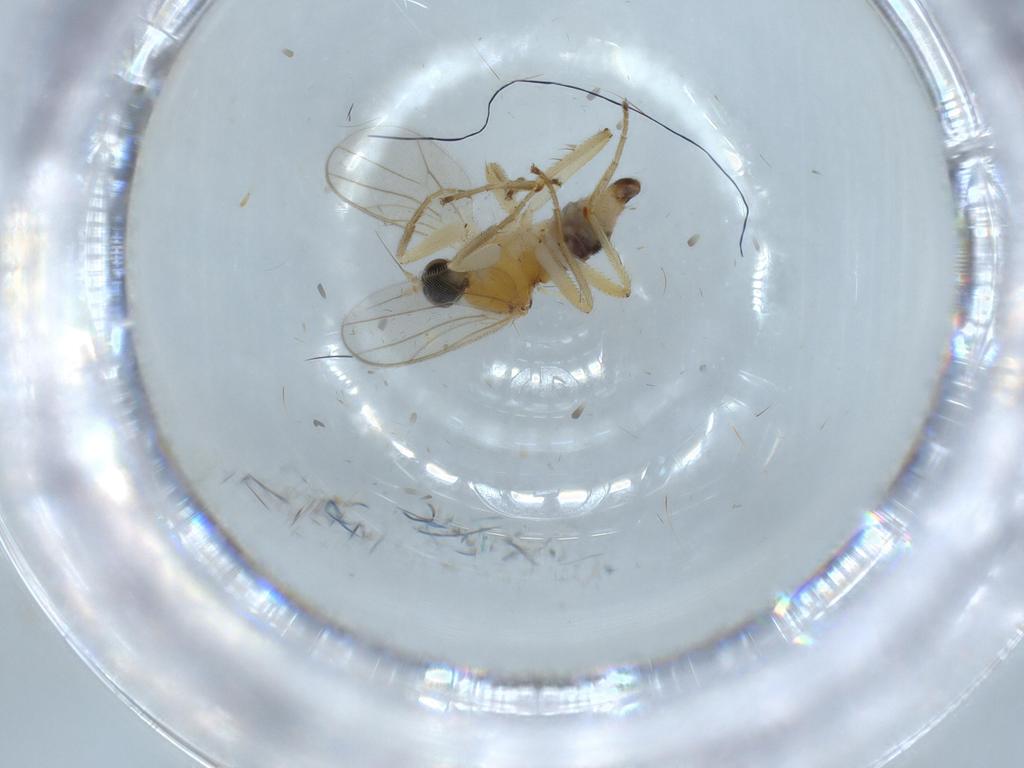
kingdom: Animalia
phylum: Arthropoda
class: Insecta
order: Diptera
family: Hybotidae
